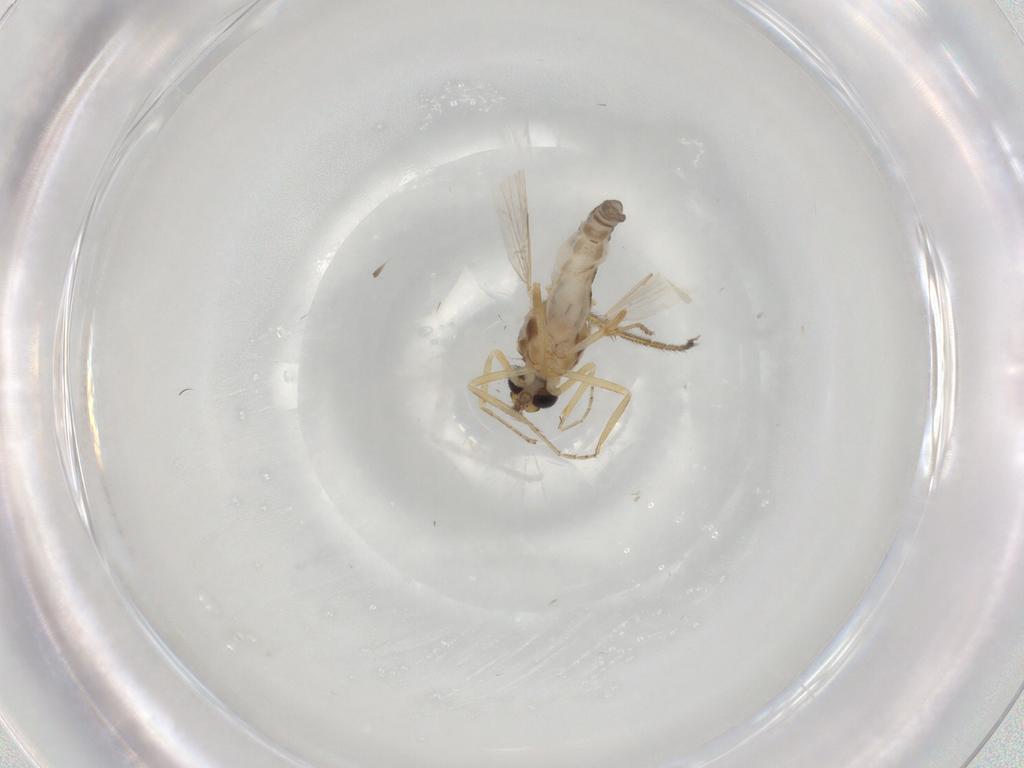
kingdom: Animalia
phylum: Arthropoda
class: Insecta
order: Diptera
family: Ceratopogonidae
